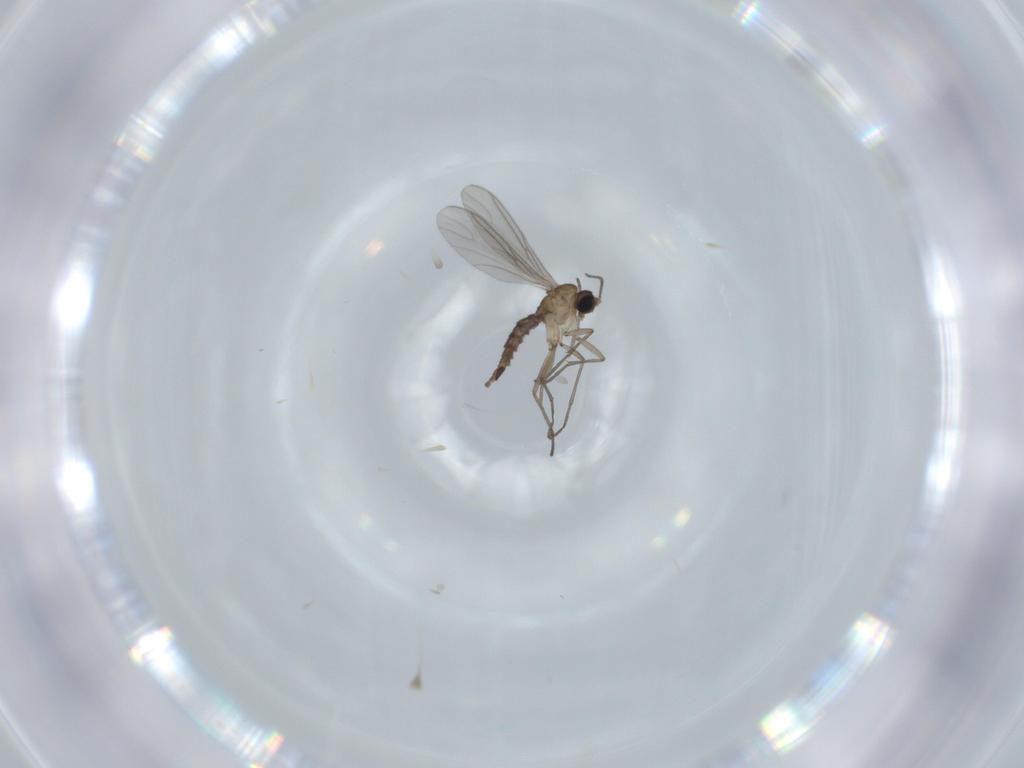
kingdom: Animalia
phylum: Arthropoda
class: Insecta
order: Diptera
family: Sciaridae
